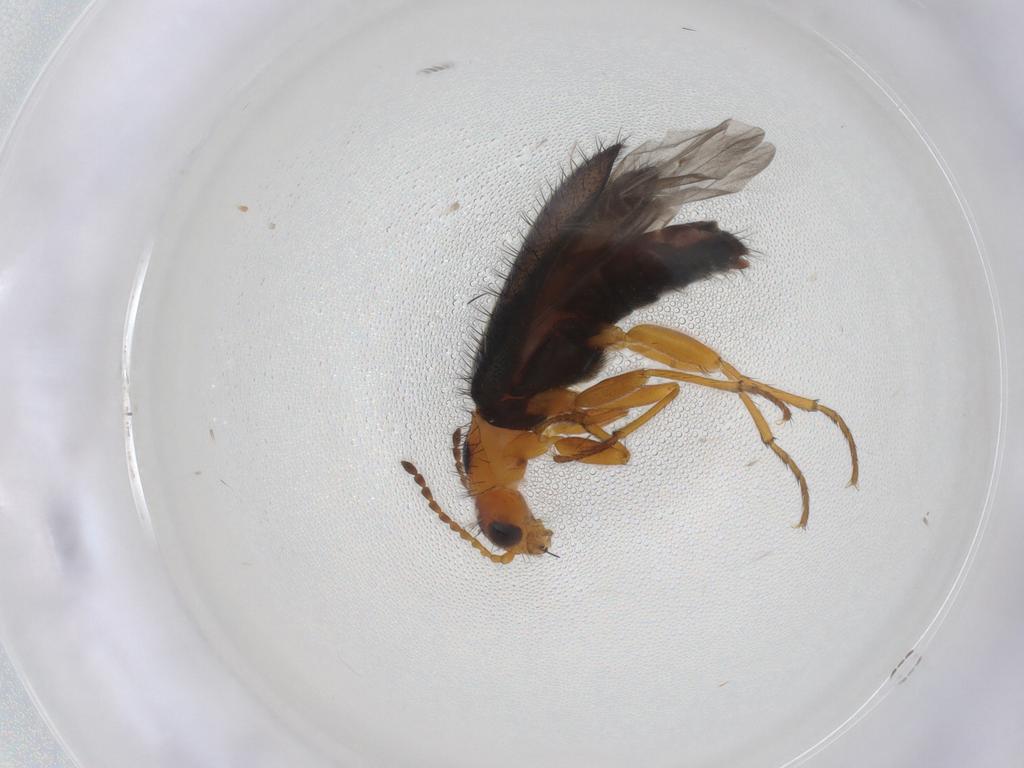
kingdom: Animalia
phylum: Arthropoda
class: Insecta
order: Coleoptera
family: Melyridae
